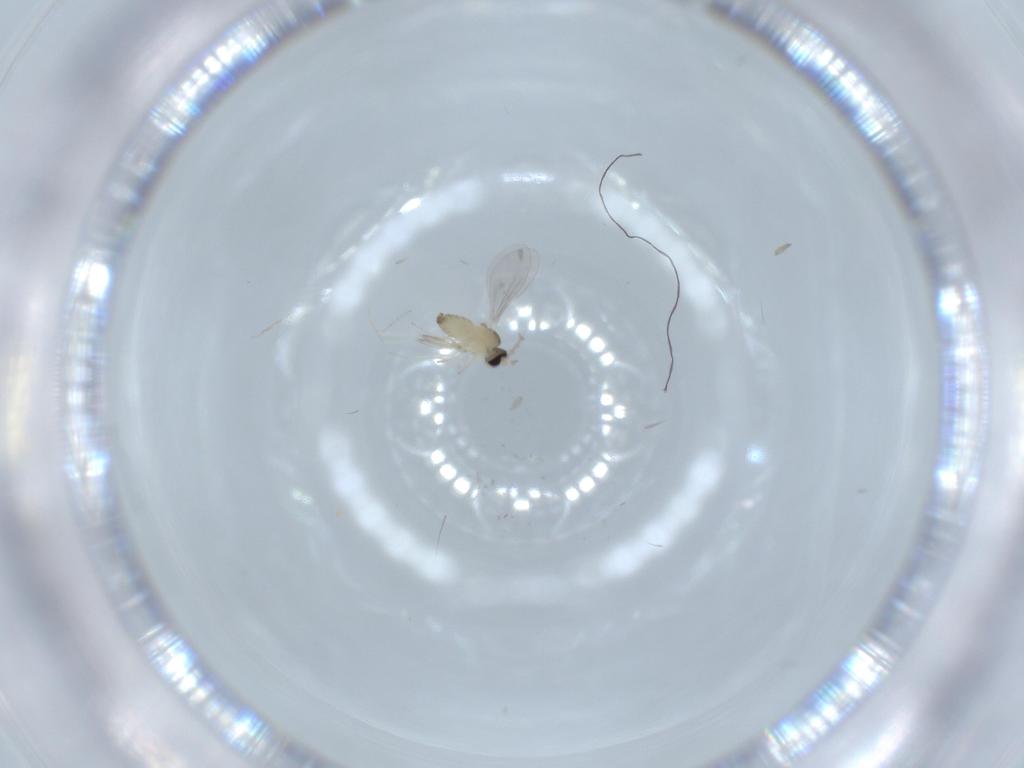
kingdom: Animalia
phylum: Arthropoda
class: Insecta
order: Diptera
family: Cecidomyiidae
